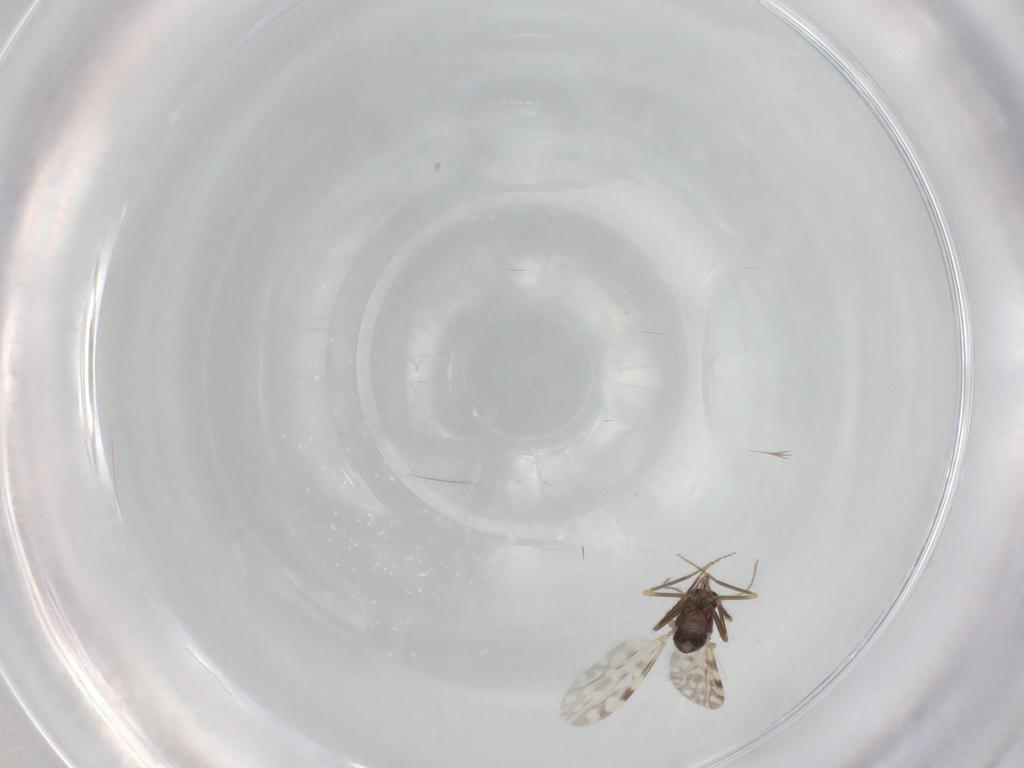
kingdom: Animalia
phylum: Arthropoda
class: Insecta
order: Diptera
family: Ceratopogonidae
